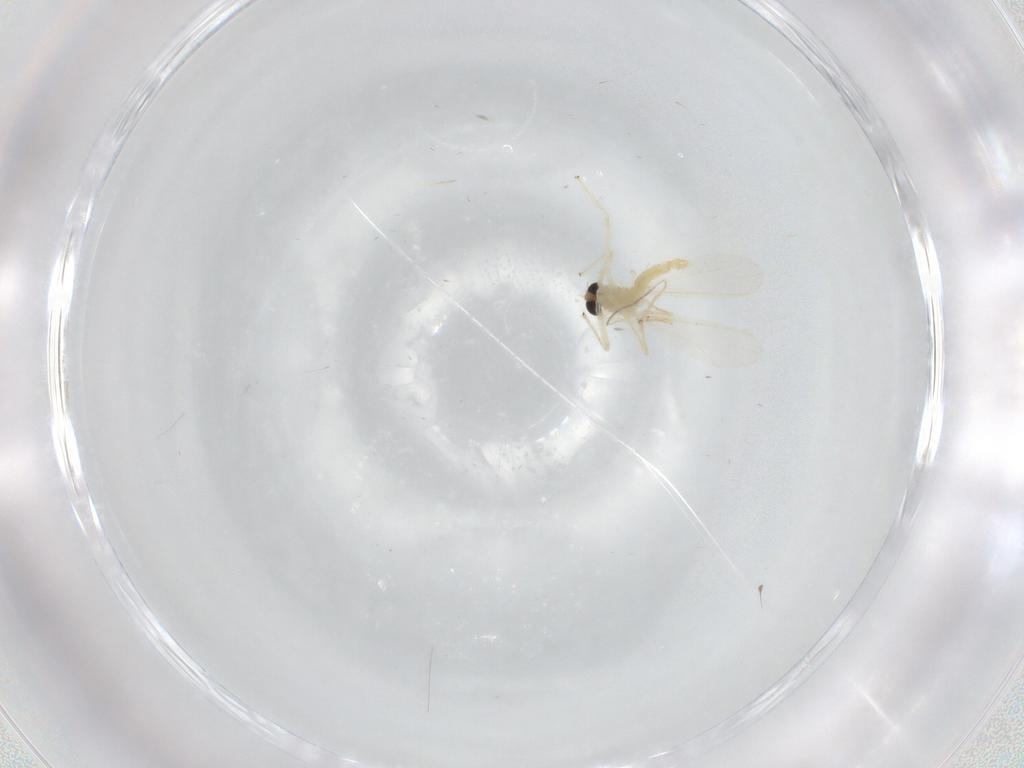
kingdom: Animalia
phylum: Arthropoda
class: Insecta
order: Diptera
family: Chironomidae
